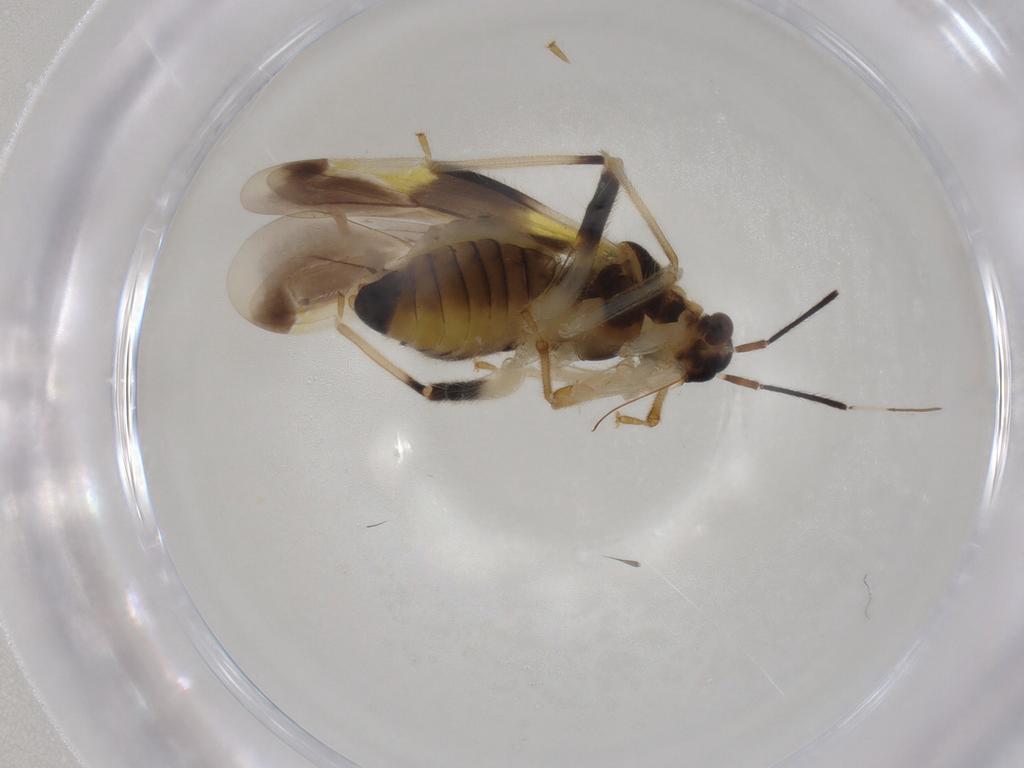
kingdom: Animalia
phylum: Arthropoda
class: Insecta
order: Hemiptera
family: Miridae
